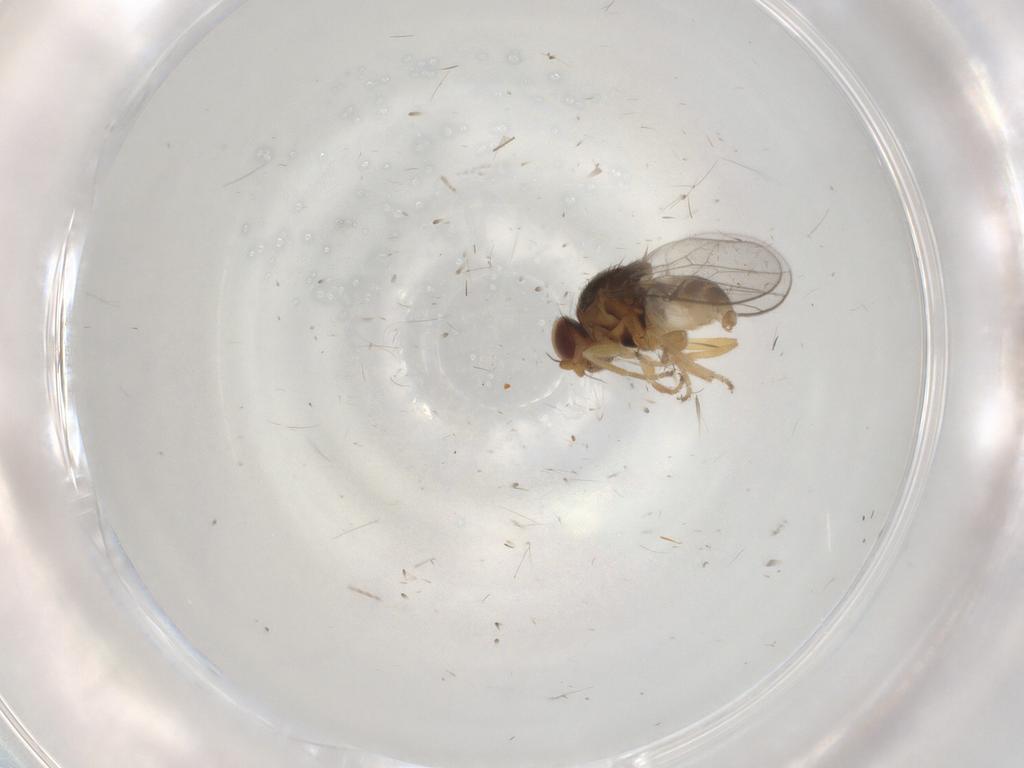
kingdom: Animalia
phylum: Arthropoda
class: Insecta
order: Diptera
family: Chloropidae
